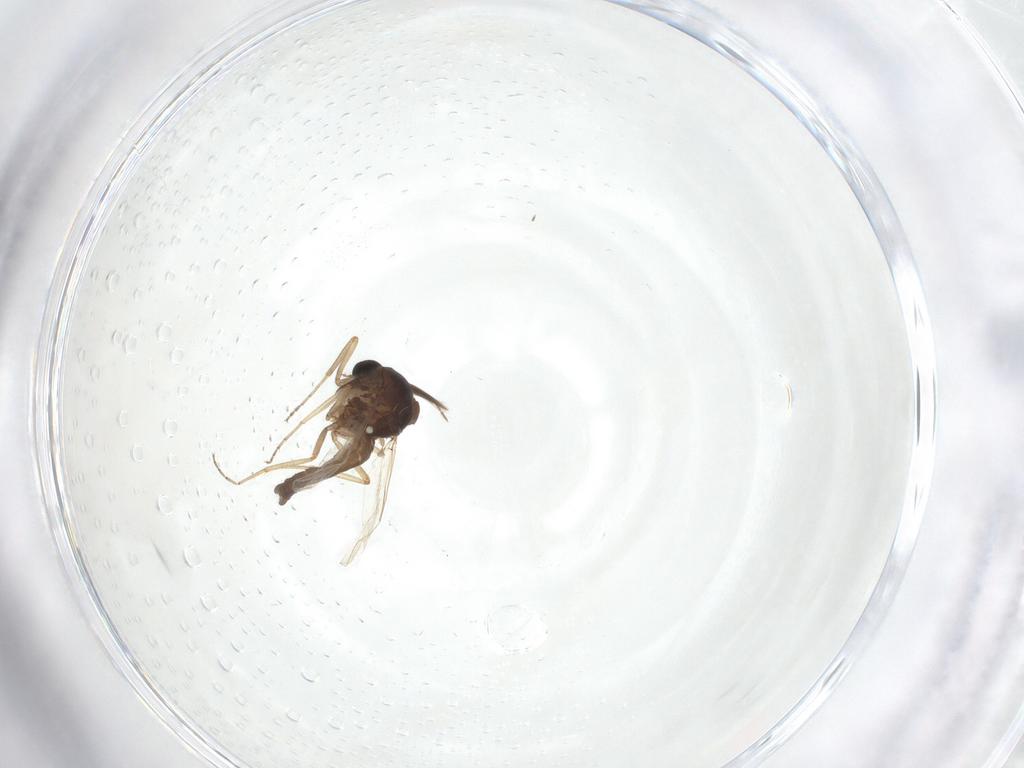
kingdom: Animalia
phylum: Arthropoda
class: Insecta
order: Diptera
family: Ceratopogonidae
